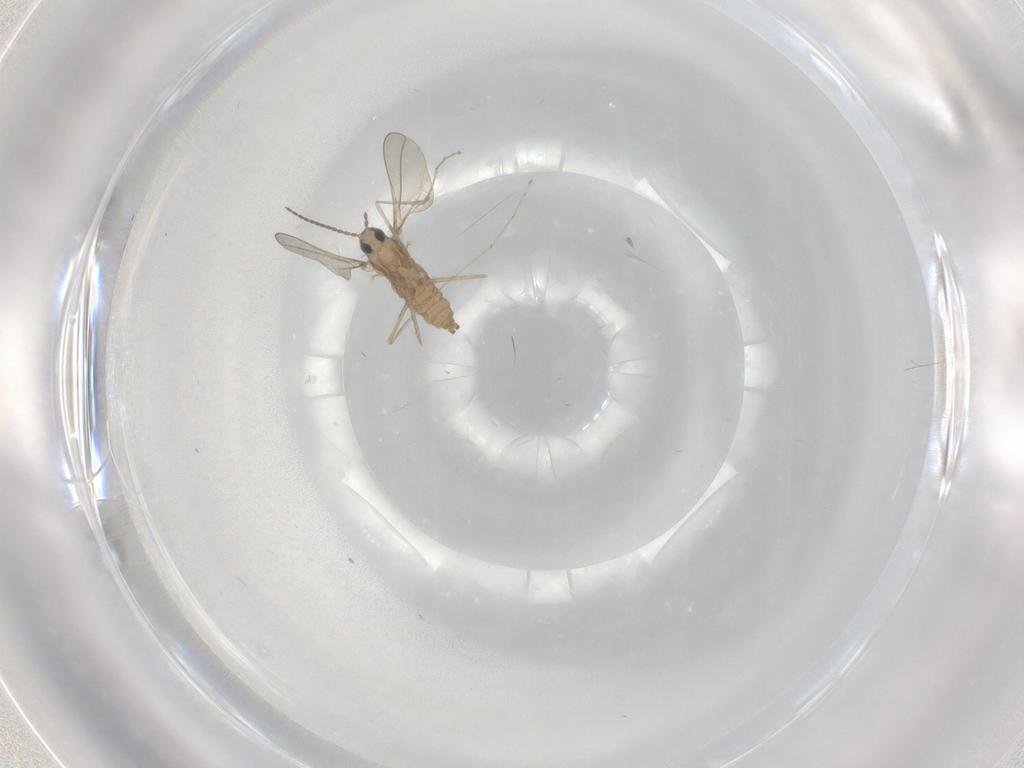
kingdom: Animalia
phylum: Arthropoda
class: Insecta
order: Diptera
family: Cecidomyiidae
